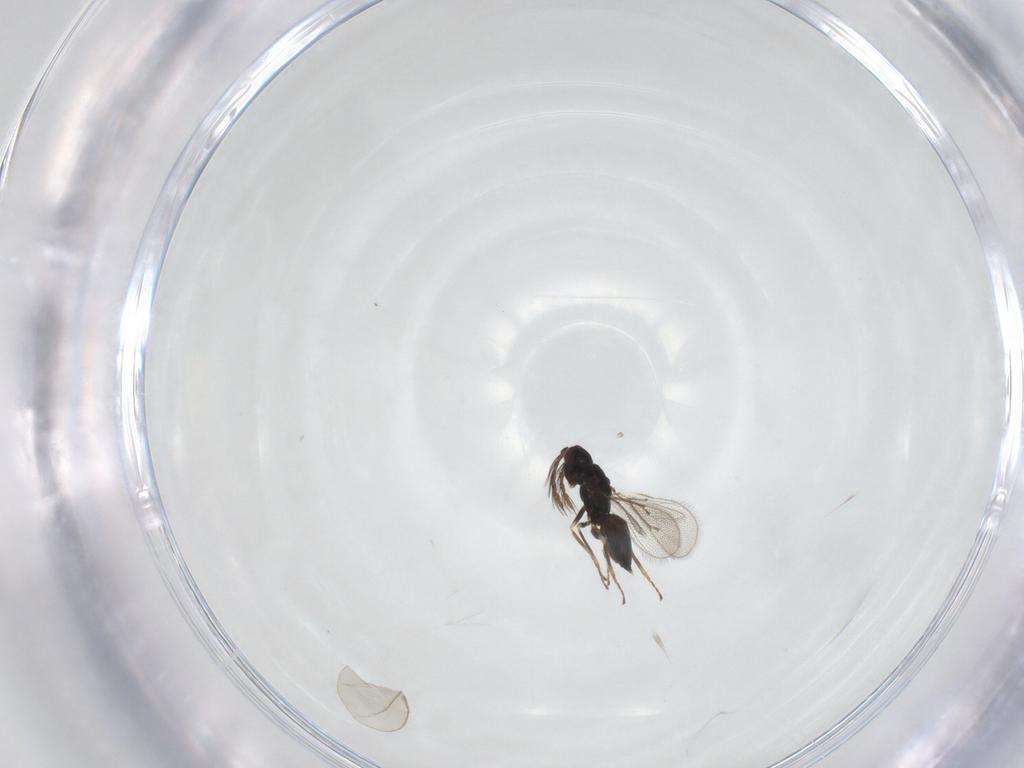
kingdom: Animalia
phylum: Arthropoda
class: Insecta
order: Hymenoptera
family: Eulophidae
